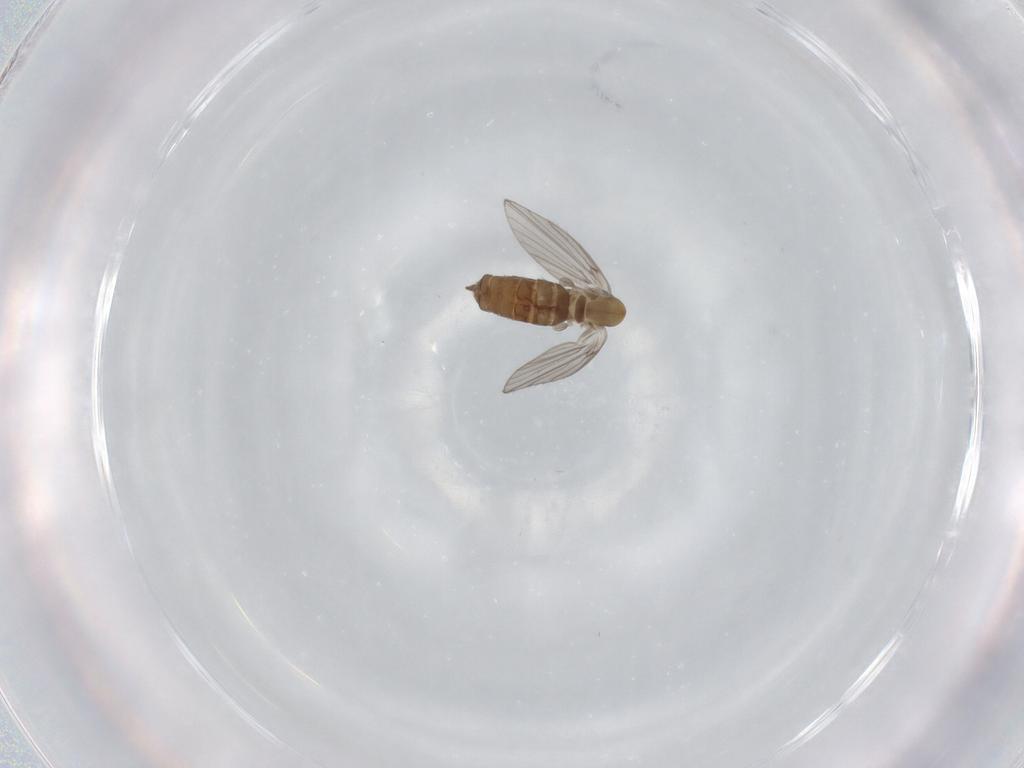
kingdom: Animalia
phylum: Arthropoda
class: Insecta
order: Diptera
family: Psychodidae
